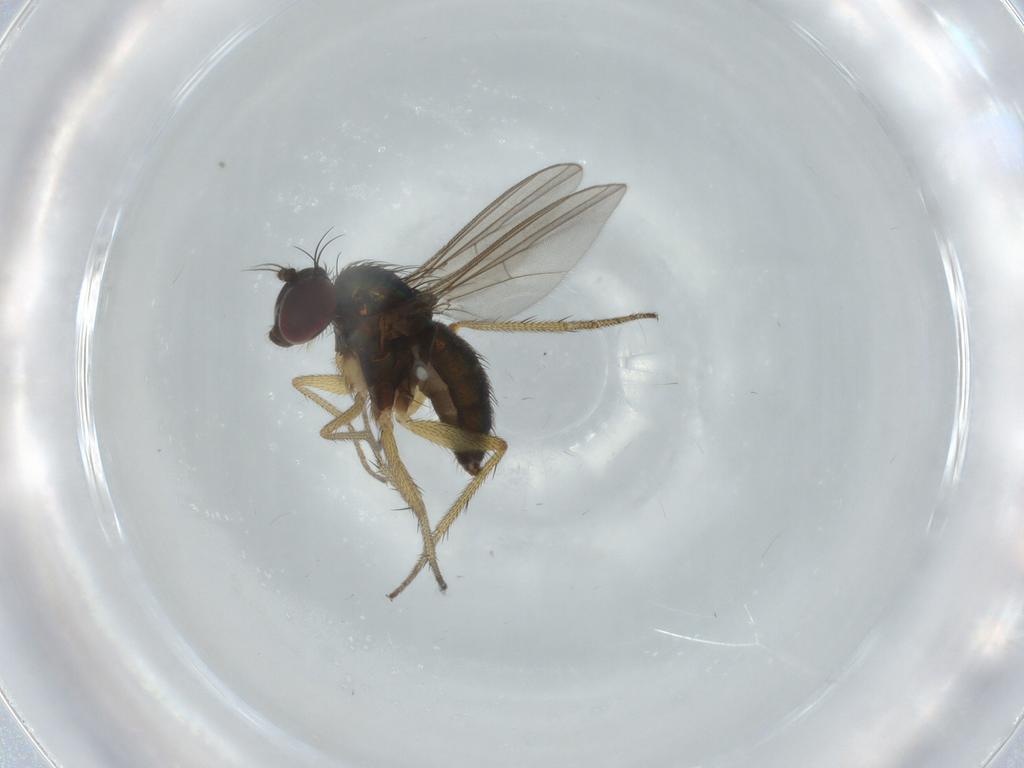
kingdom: Animalia
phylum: Arthropoda
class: Insecta
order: Diptera
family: Dolichopodidae
